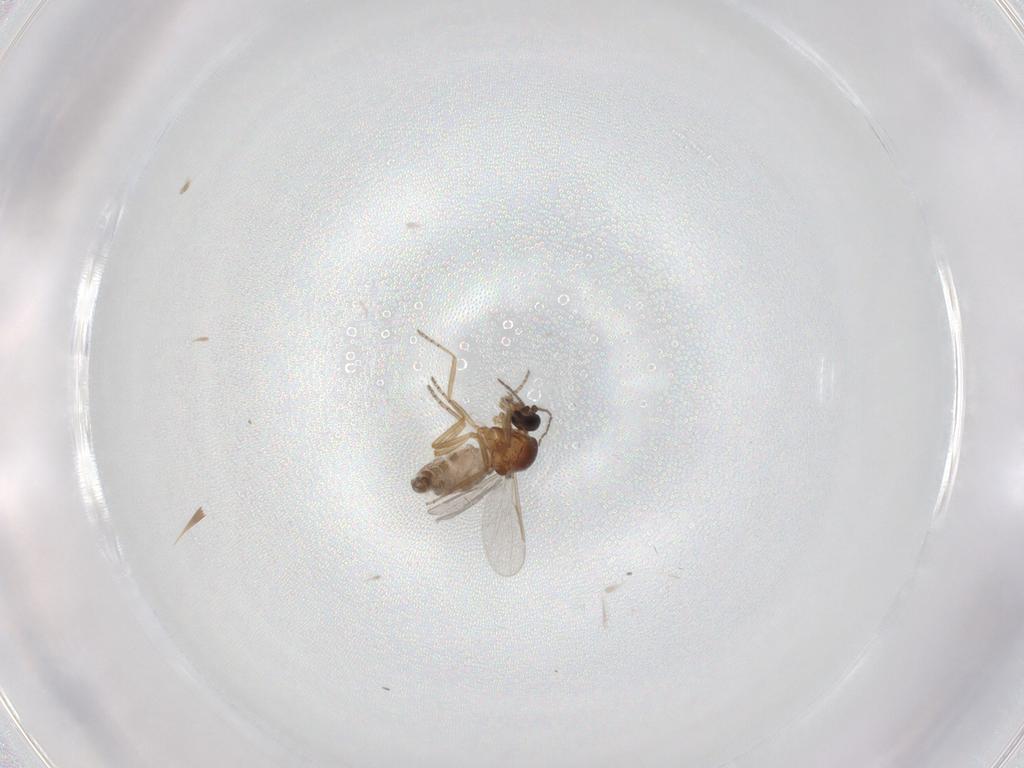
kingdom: Animalia
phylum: Arthropoda
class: Insecta
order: Diptera
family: Ceratopogonidae
